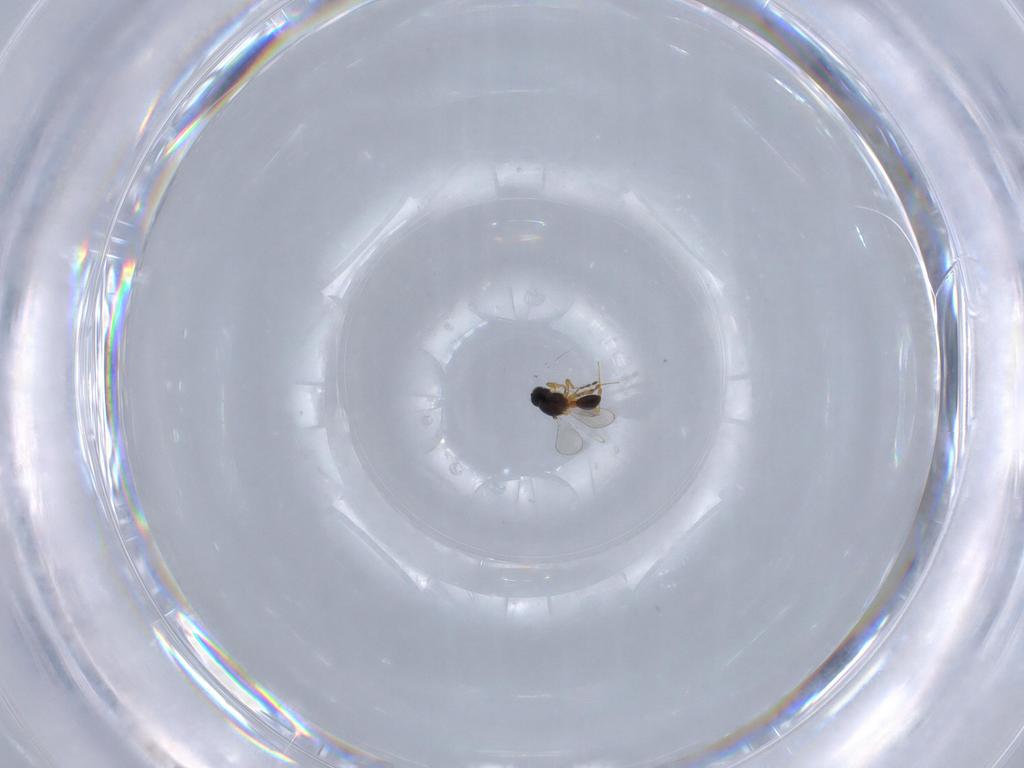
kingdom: Animalia
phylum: Arthropoda
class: Insecta
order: Hymenoptera
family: Platygastridae
